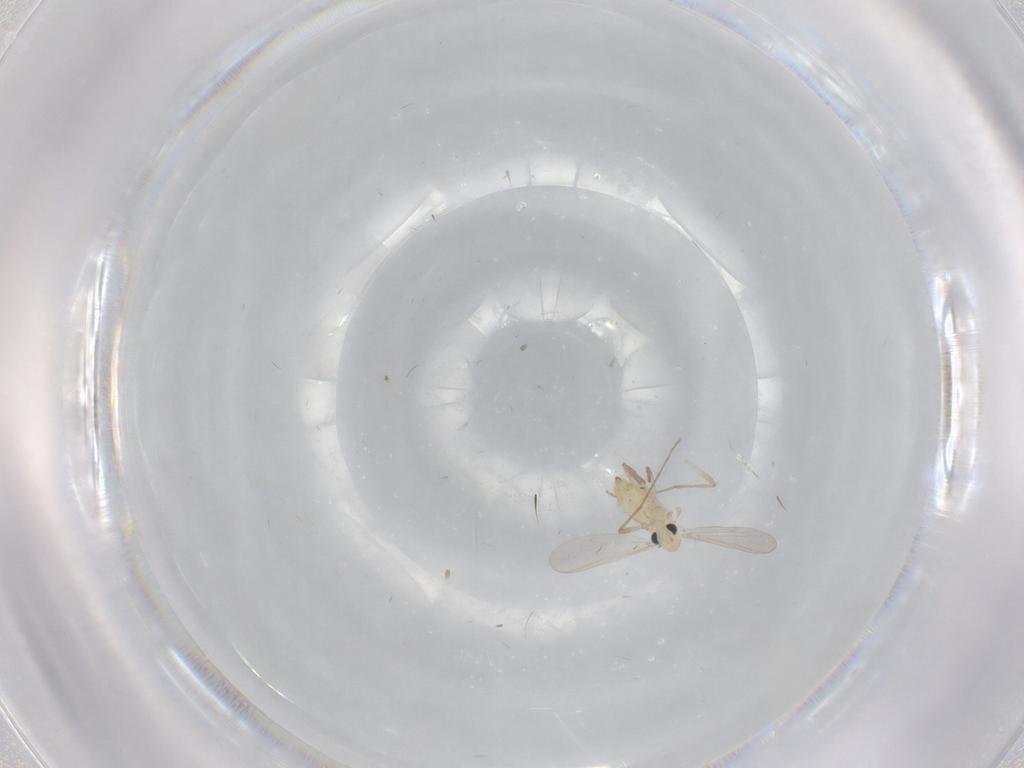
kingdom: Animalia
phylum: Arthropoda
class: Insecta
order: Diptera
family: Chironomidae
